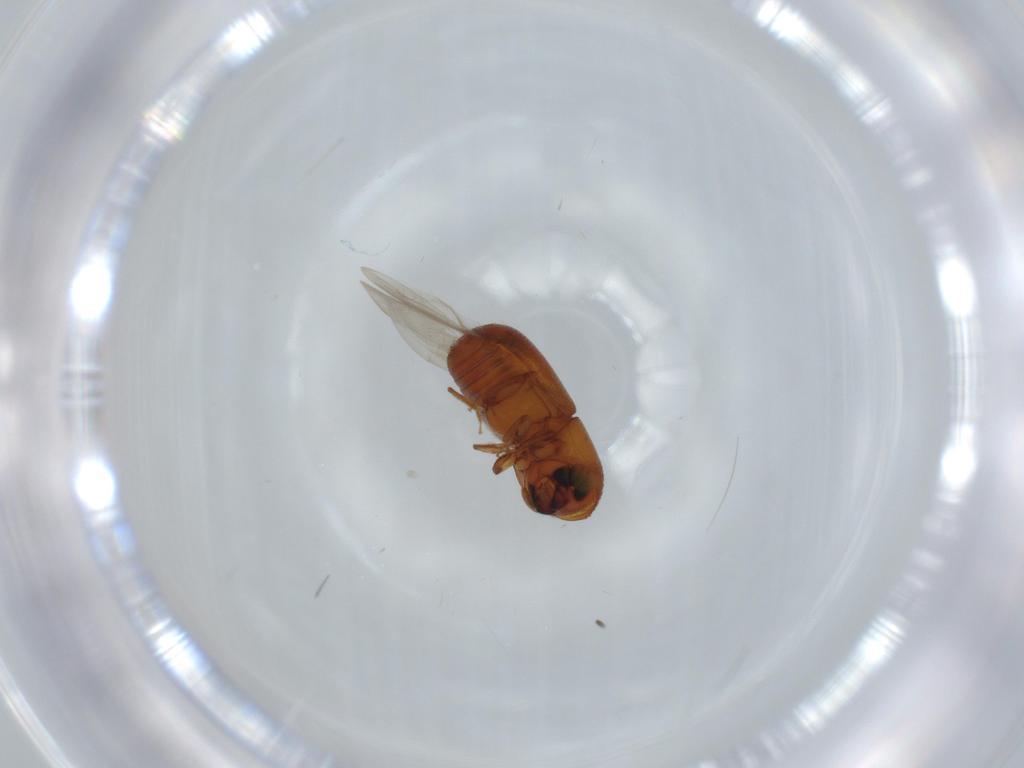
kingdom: Animalia
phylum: Arthropoda
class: Insecta
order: Coleoptera
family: Curculionidae
